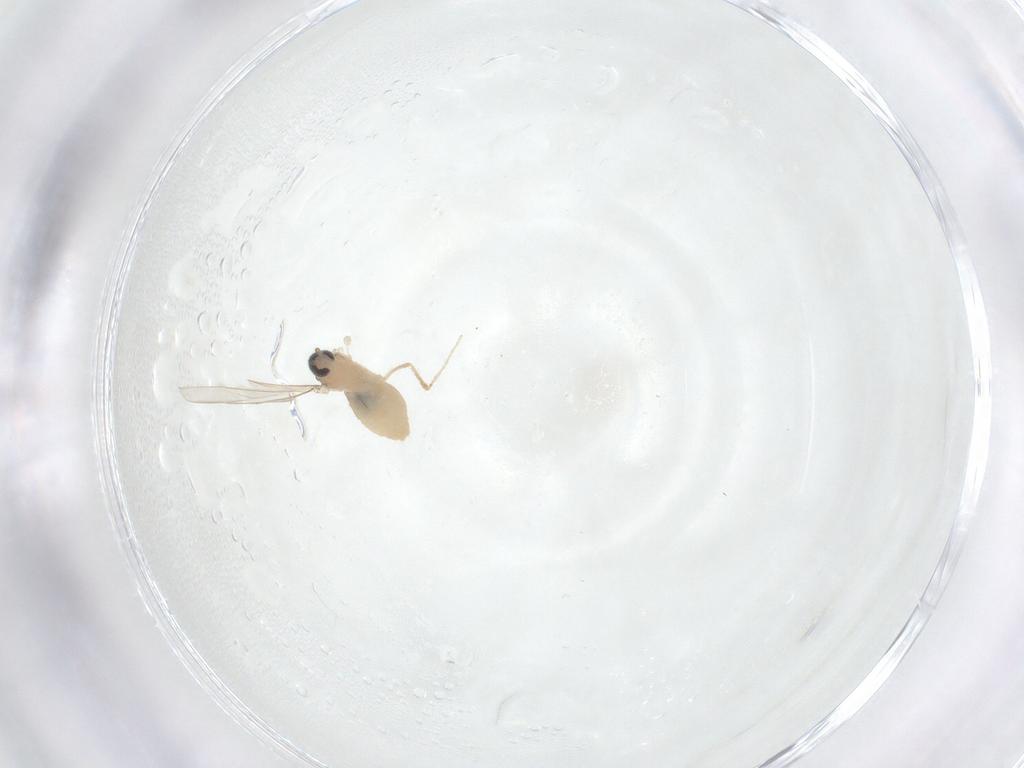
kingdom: Animalia
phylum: Arthropoda
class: Insecta
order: Diptera
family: Cecidomyiidae
